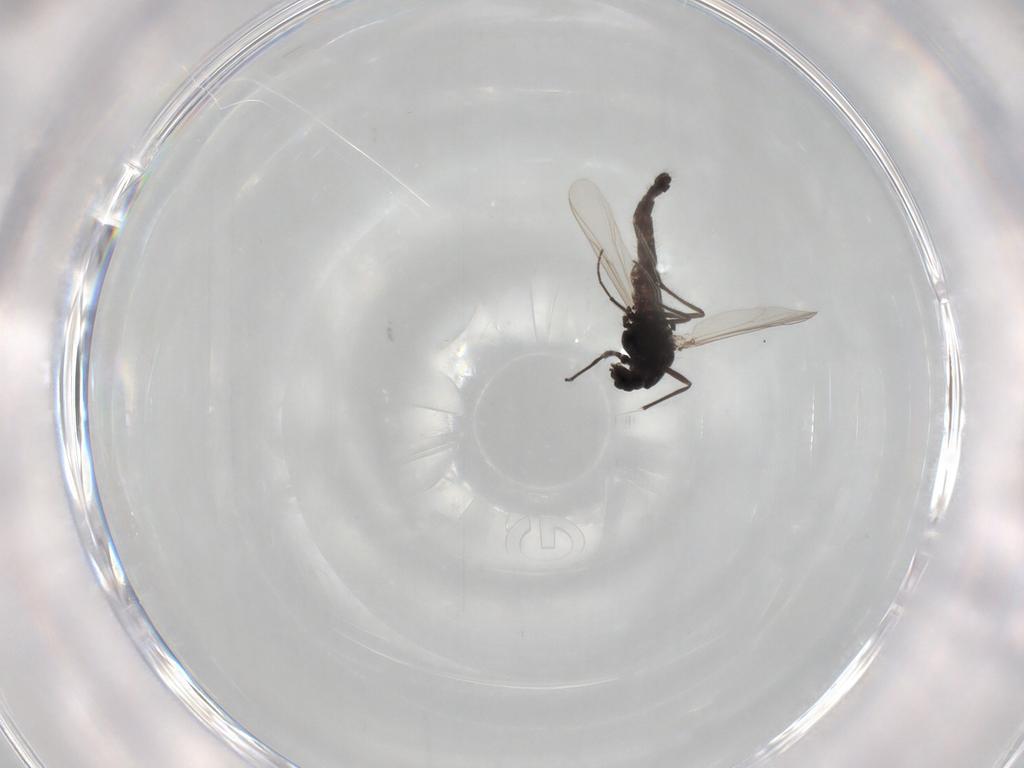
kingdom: Animalia
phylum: Arthropoda
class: Insecta
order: Diptera
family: Chironomidae
